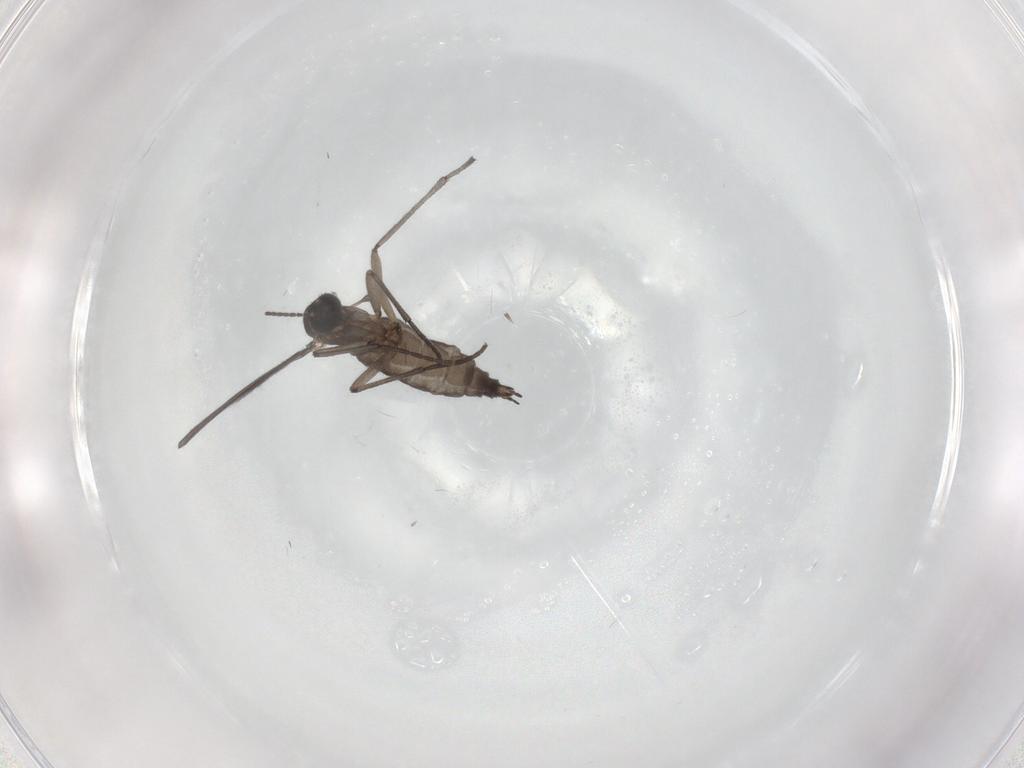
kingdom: Animalia
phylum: Arthropoda
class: Insecta
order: Diptera
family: Sciaridae
